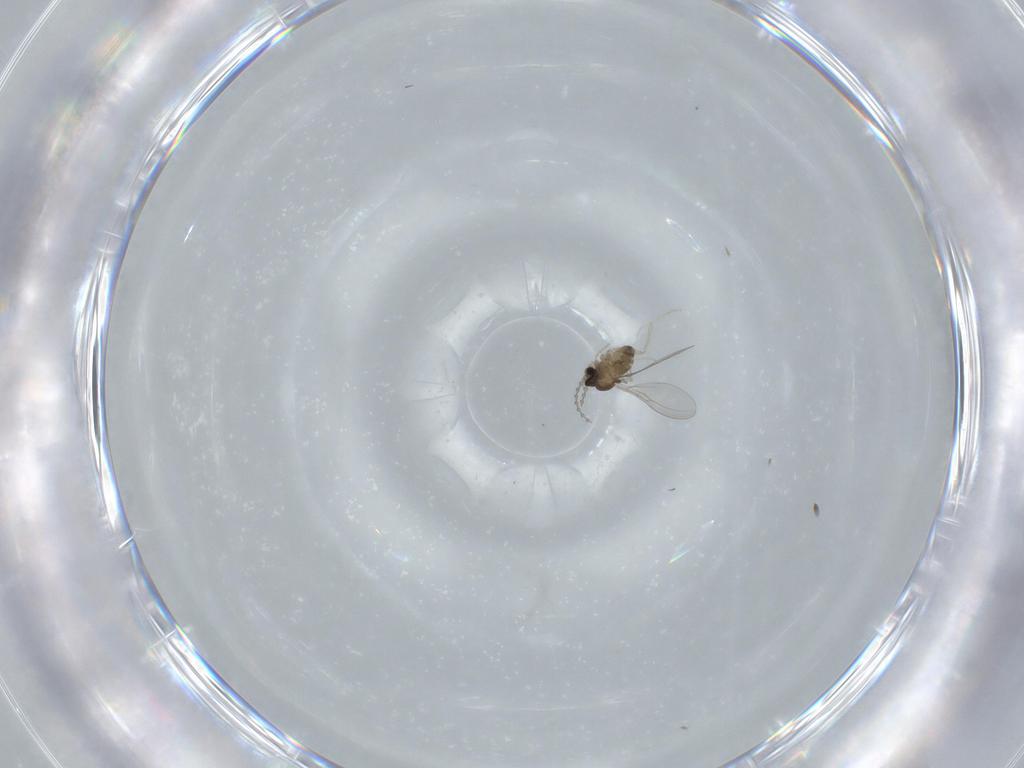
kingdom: Animalia
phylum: Arthropoda
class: Insecta
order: Diptera
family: Cecidomyiidae
